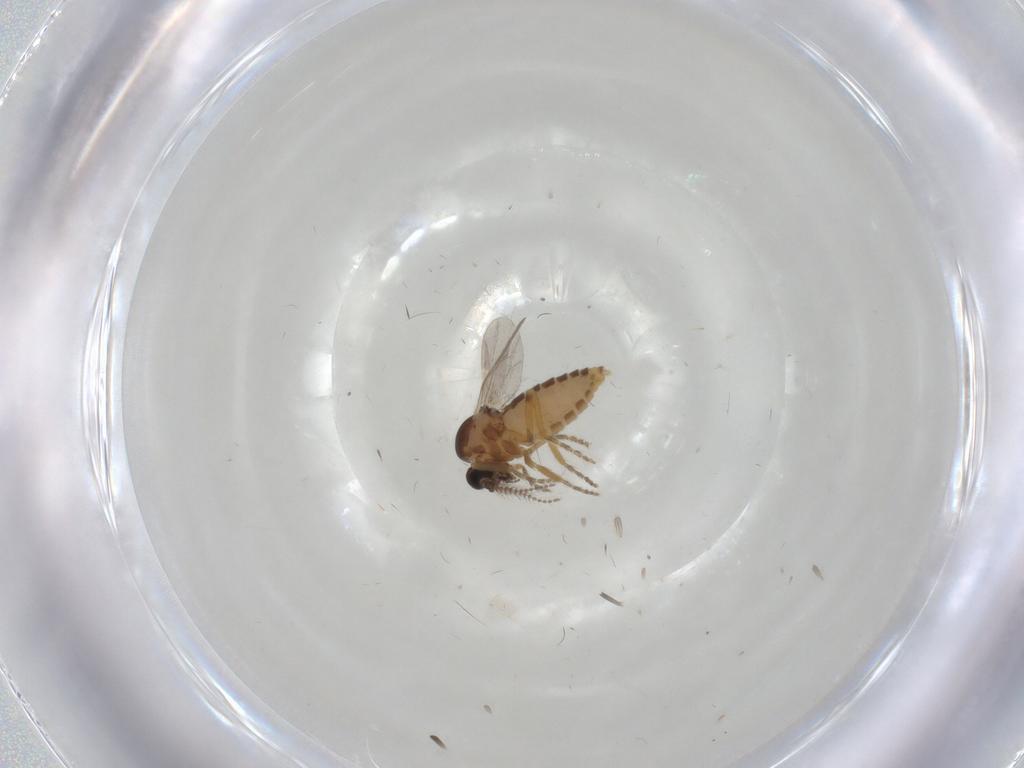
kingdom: Animalia
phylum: Arthropoda
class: Insecta
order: Diptera
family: Ceratopogonidae
